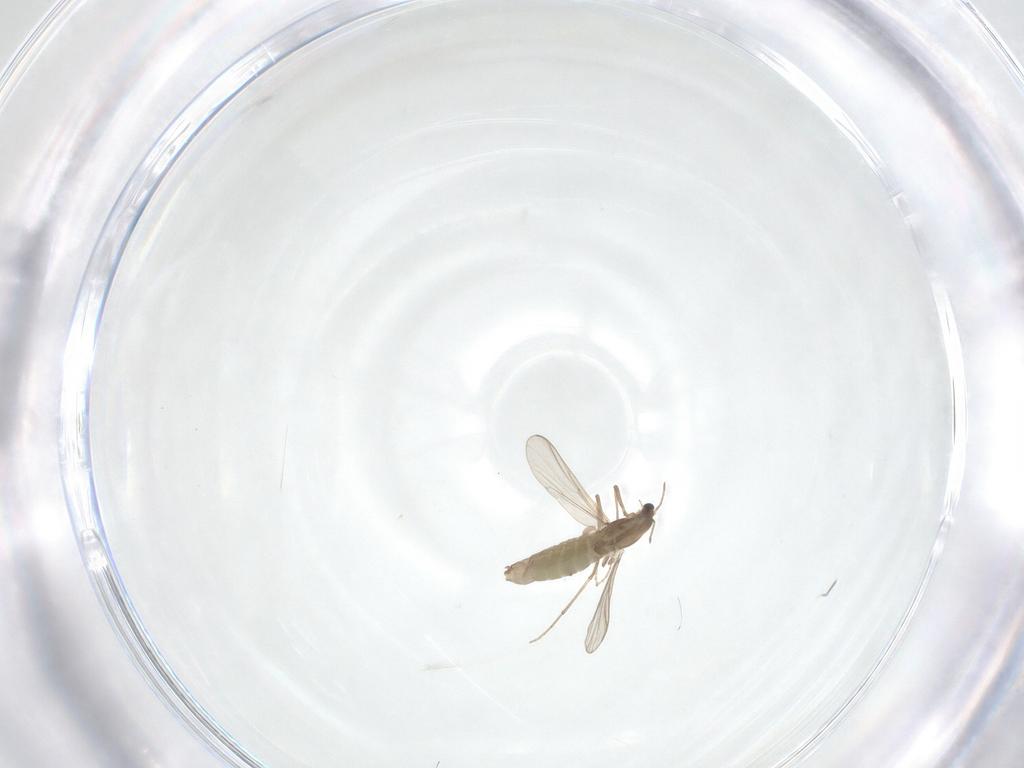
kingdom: Animalia
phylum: Arthropoda
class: Insecta
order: Diptera
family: Chironomidae
